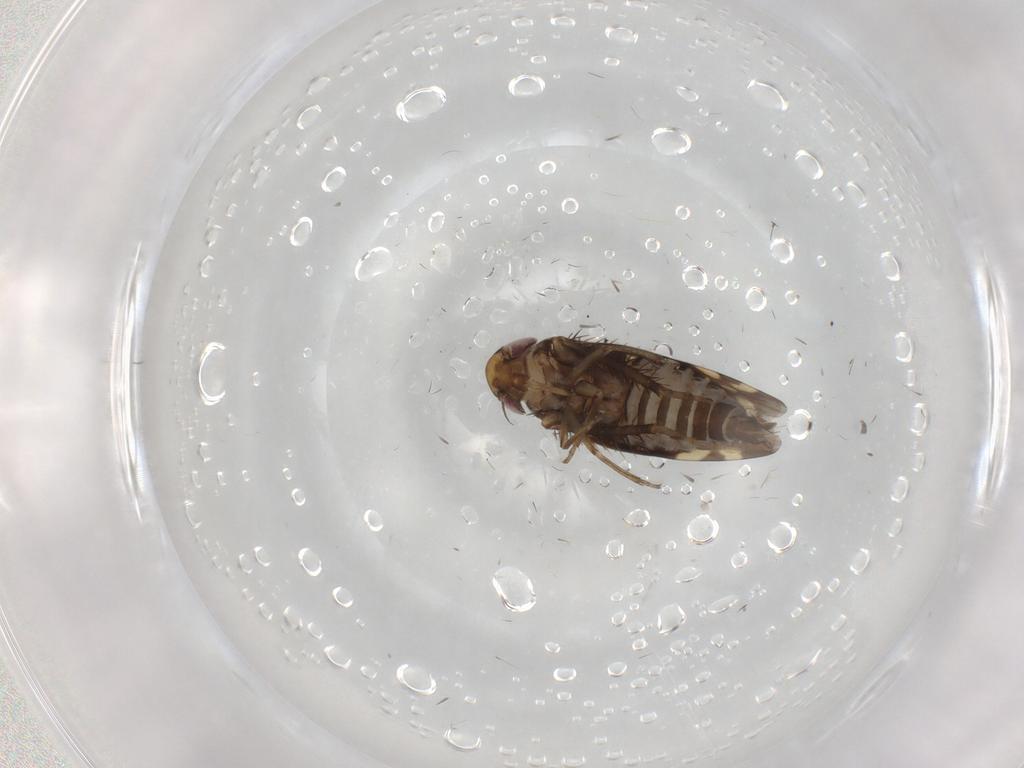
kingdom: Animalia
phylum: Arthropoda
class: Insecta
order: Hemiptera
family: Cicadellidae
